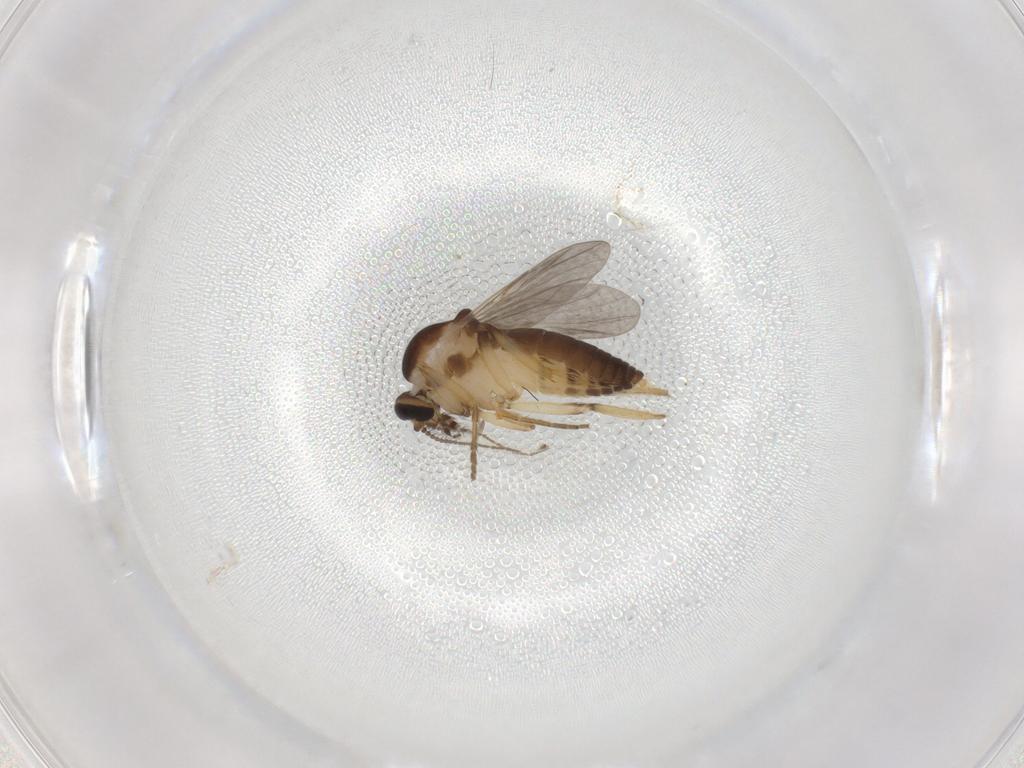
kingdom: Animalia
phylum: Arthropoda
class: Insecta
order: Diptera
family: Ceratopogonidae
